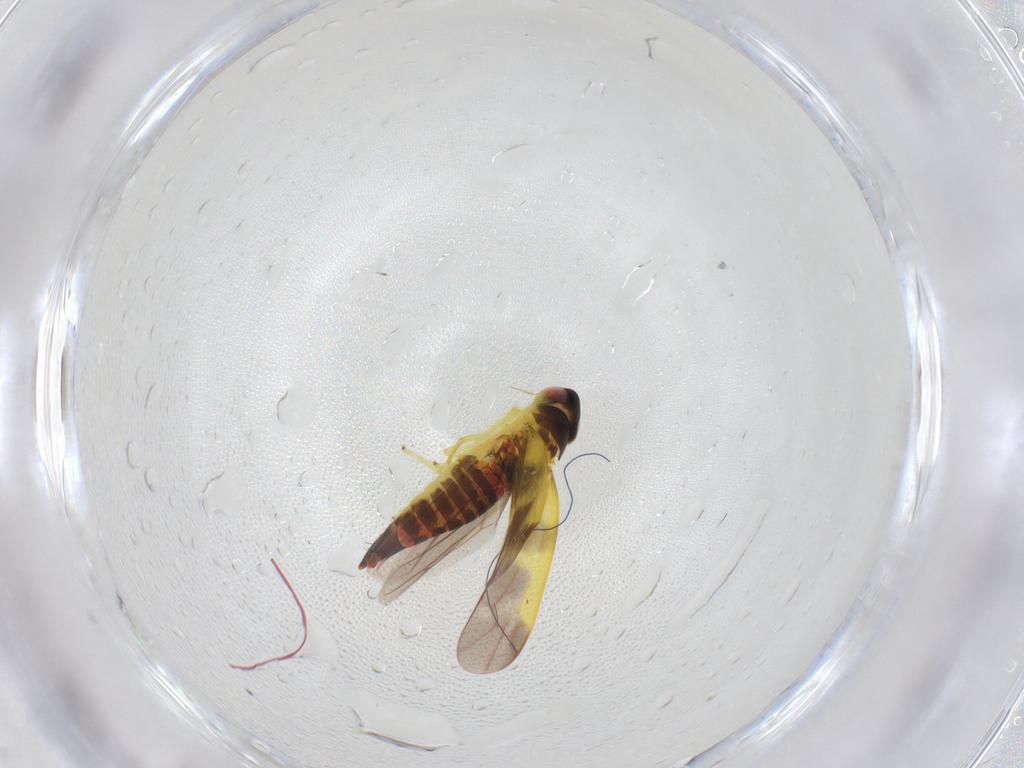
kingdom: Animalia
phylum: Arthropoda
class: Insecta
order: Hemiptera
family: Cicadellidae
